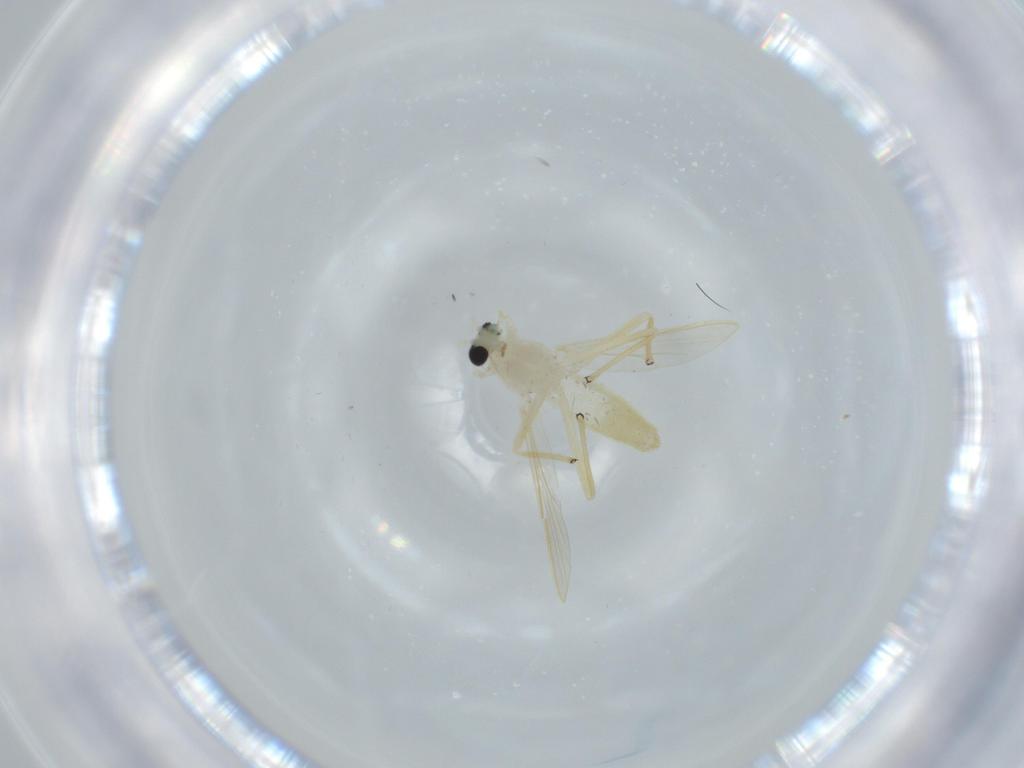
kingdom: Animalia
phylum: Arthropoda
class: Insecta
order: Diptera
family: Chironomidae
